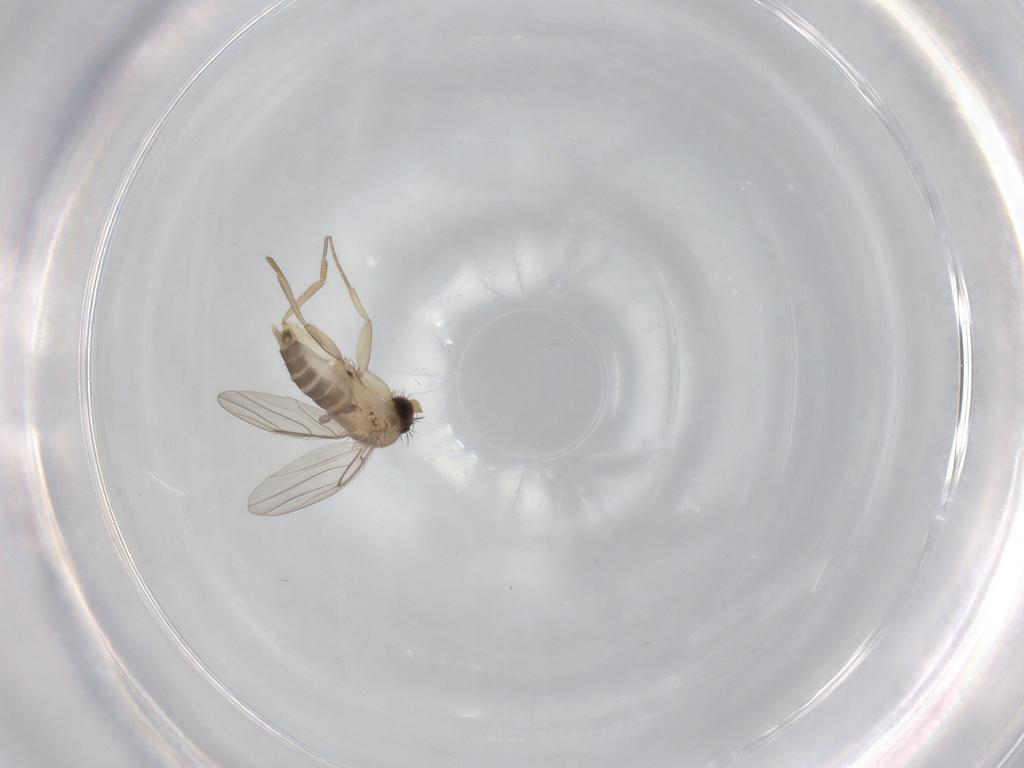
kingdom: Animalia
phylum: Arthropoda
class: Insecta
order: Diptera
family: Phoridae
